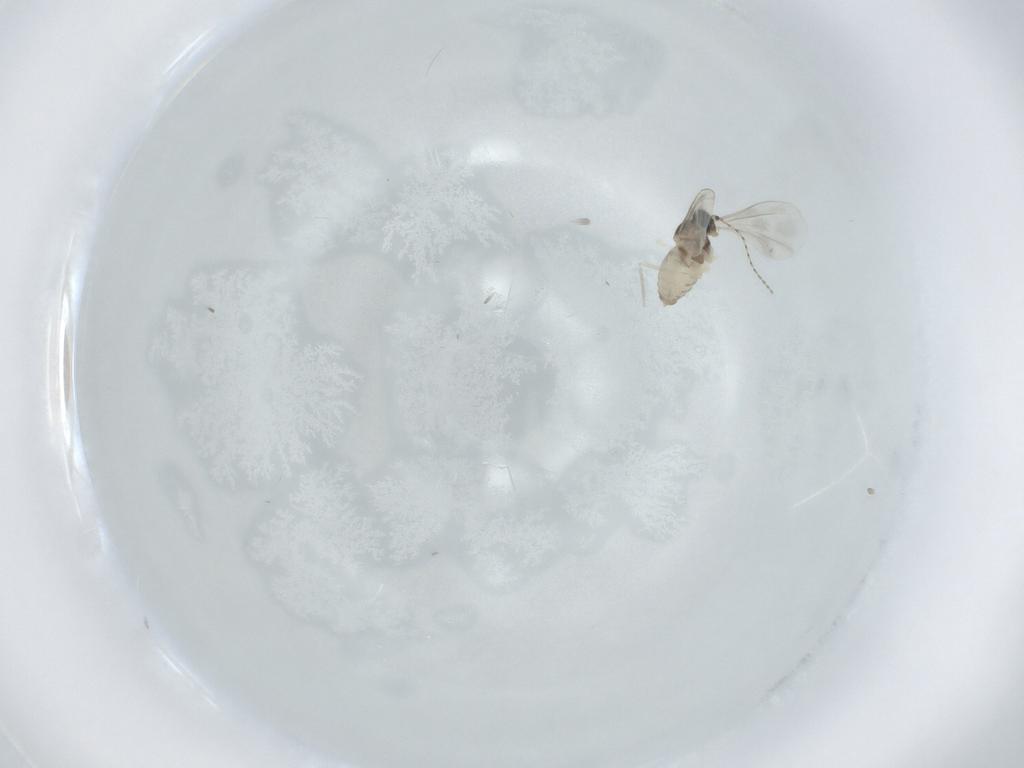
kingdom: Animalia
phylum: Arthropoda
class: Insecta
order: Diptera
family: Cecidomyiidae
